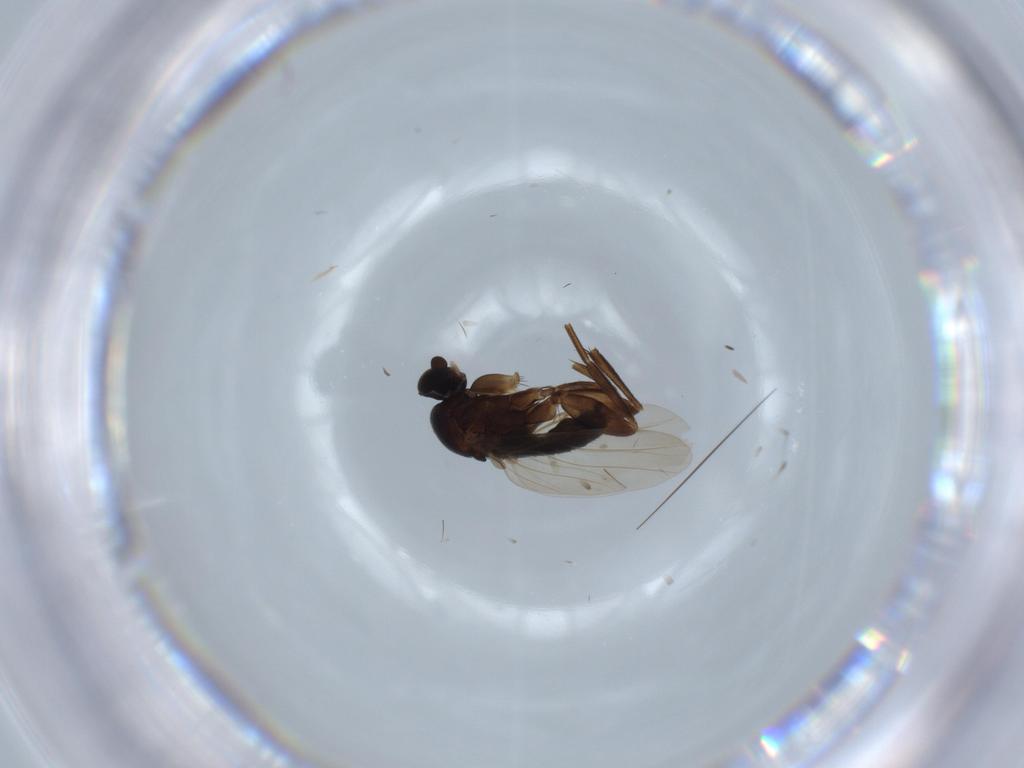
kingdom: Animalia
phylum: Arthropoda
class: Insecta
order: Diptera
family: Phoridae
